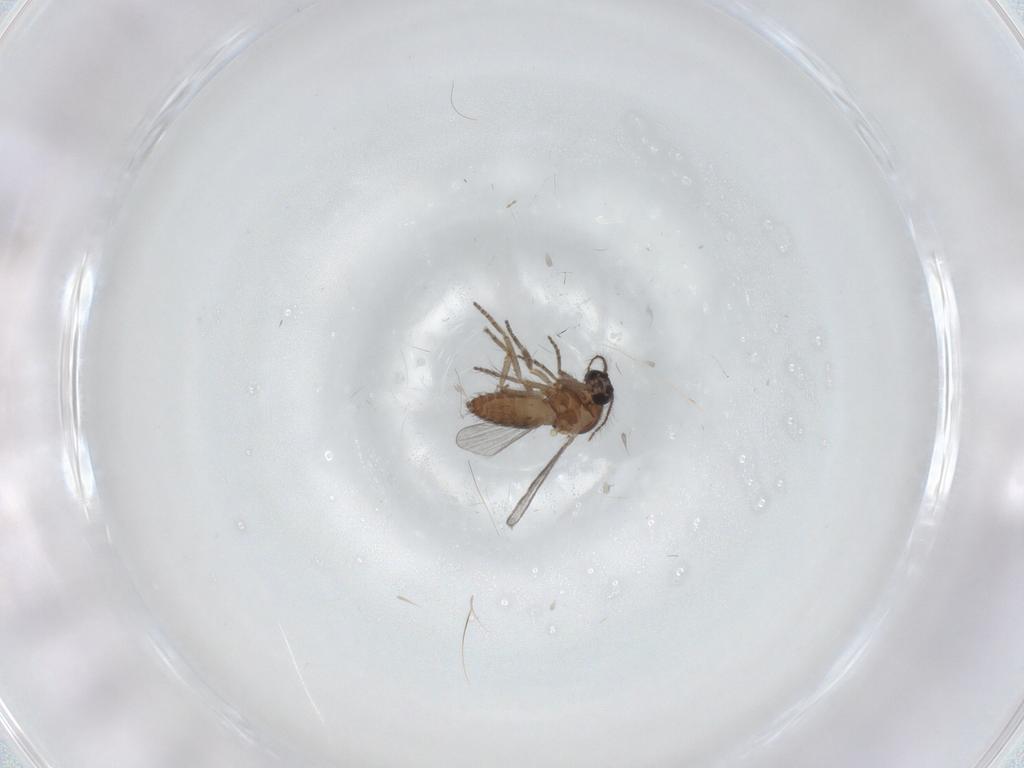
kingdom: Animalia
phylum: Arthropoda
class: Insecta
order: Diptera
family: Ceratopogonidae
